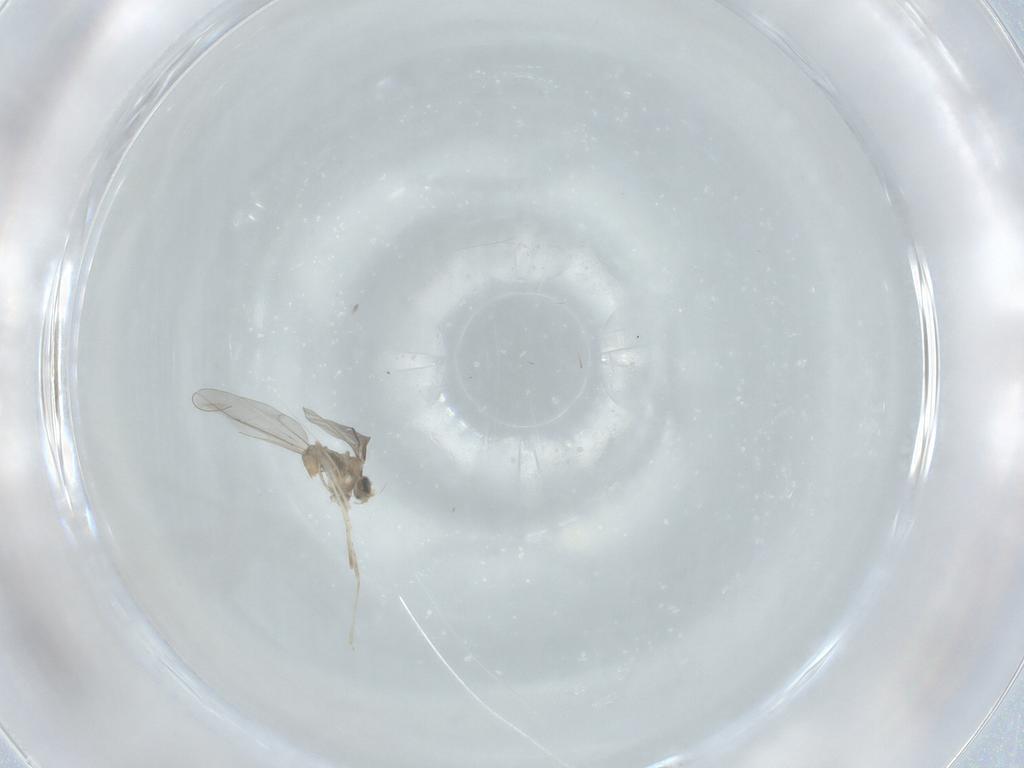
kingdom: Animalia
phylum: Arthropoda
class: Insecta
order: Diptera
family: Cecidomyiidae
